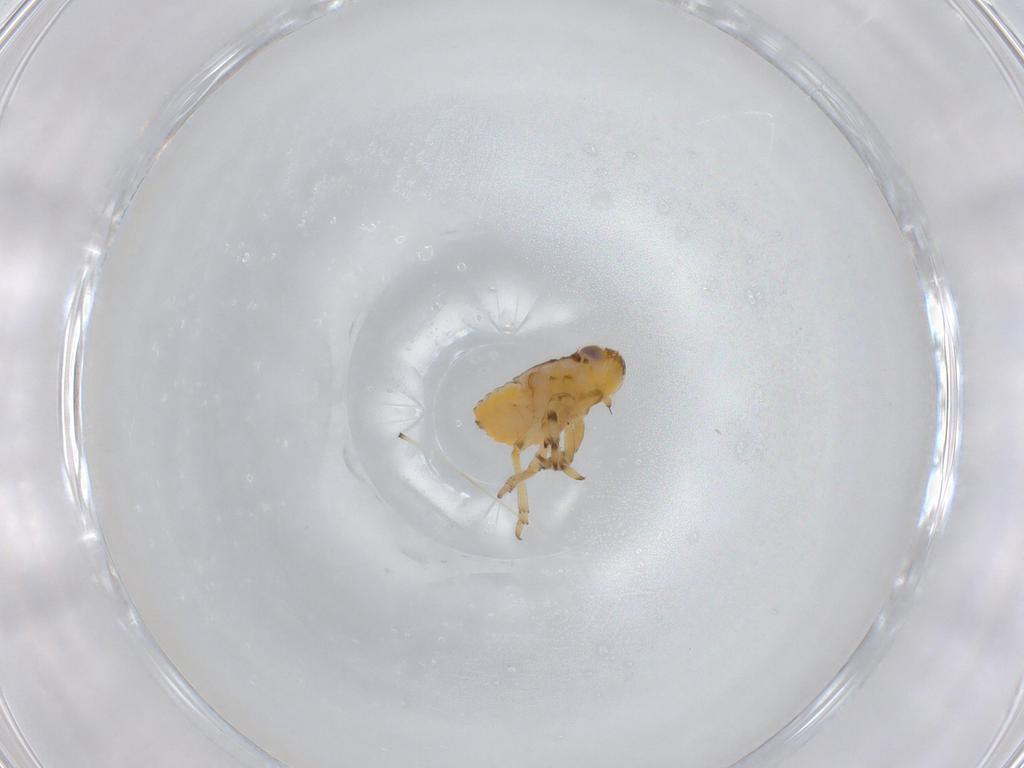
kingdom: Animalia
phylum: Arthropoda
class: Insecta
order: Hemiptera
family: Issidae
